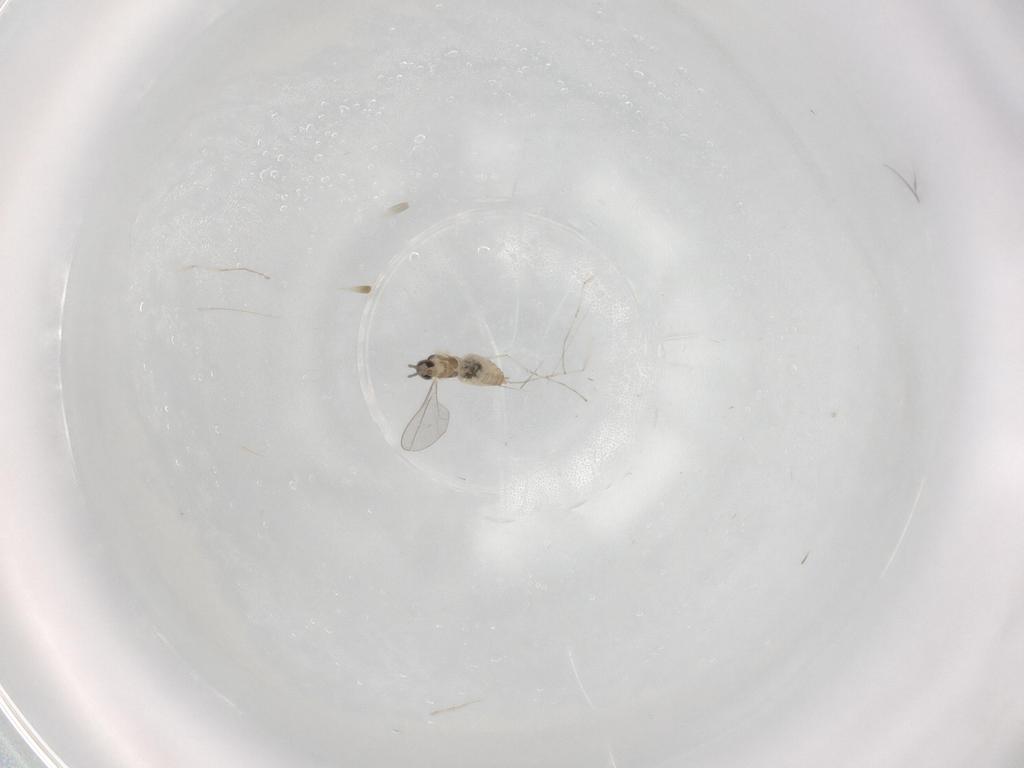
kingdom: Animalia
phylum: Arthropoda
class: Insecta
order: Diptera
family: Cecidomyiidae
